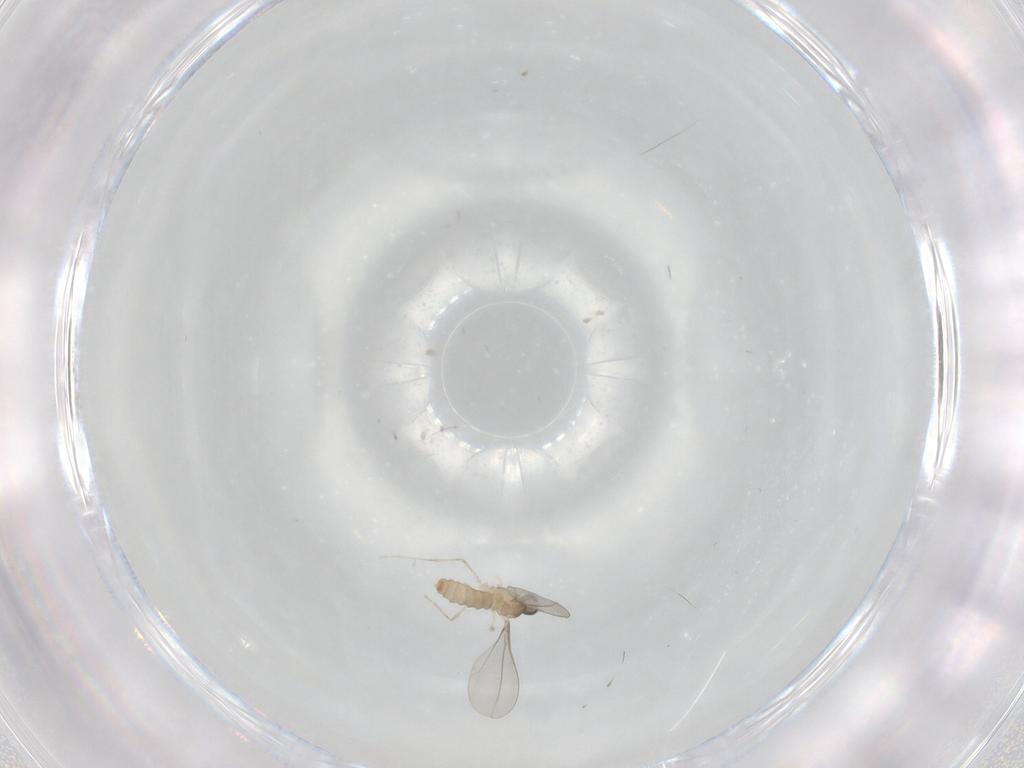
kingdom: Animalia
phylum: Arthropoda
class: Insecta
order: Diptera
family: Cecidomyiidae
